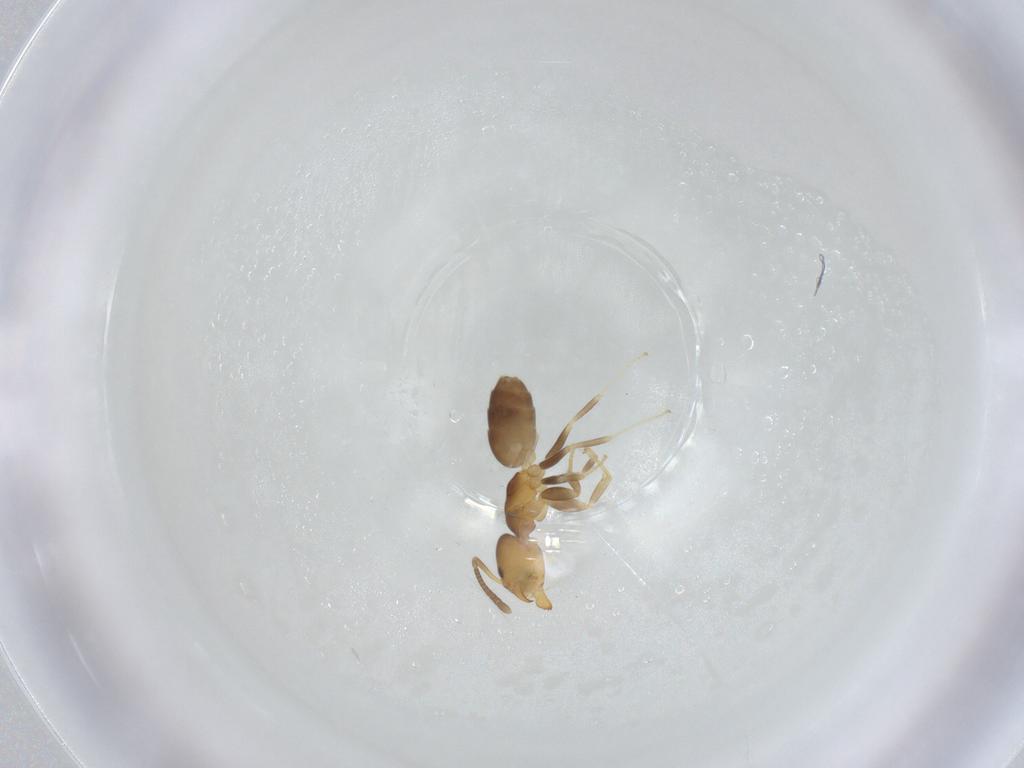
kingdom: Animalia
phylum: Arthropoda
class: Insecta
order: Hymenoptera
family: Formicidae
